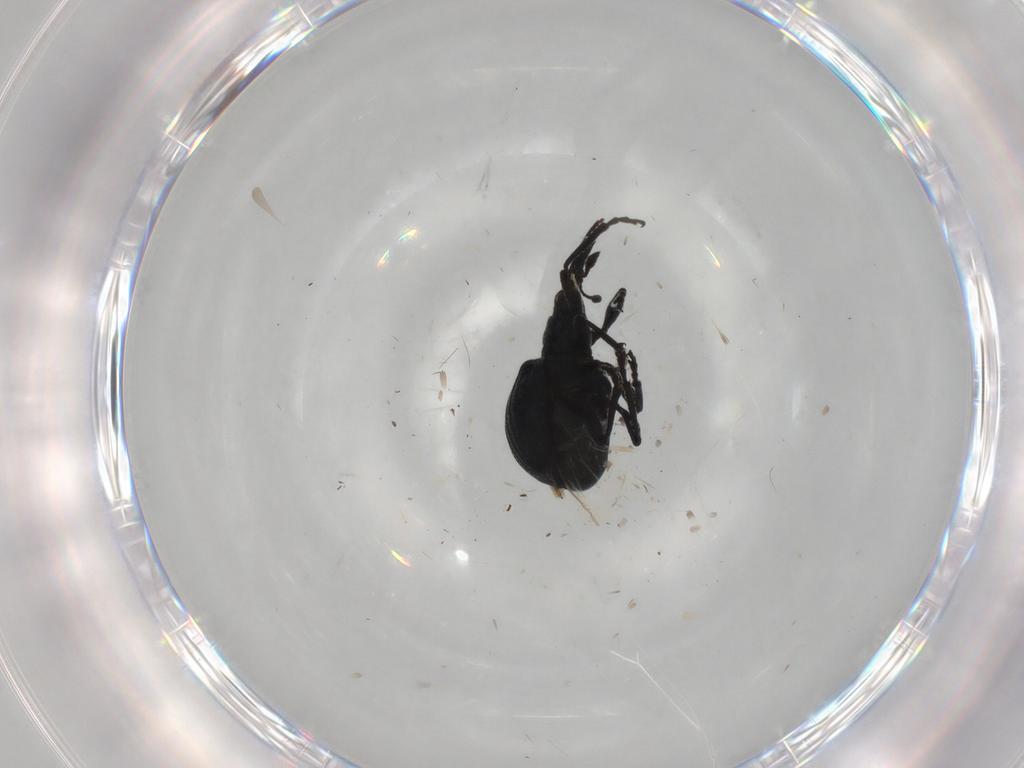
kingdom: Animalia
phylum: Arthropoda
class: Insecta
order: Coleoptera
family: Brentidae
